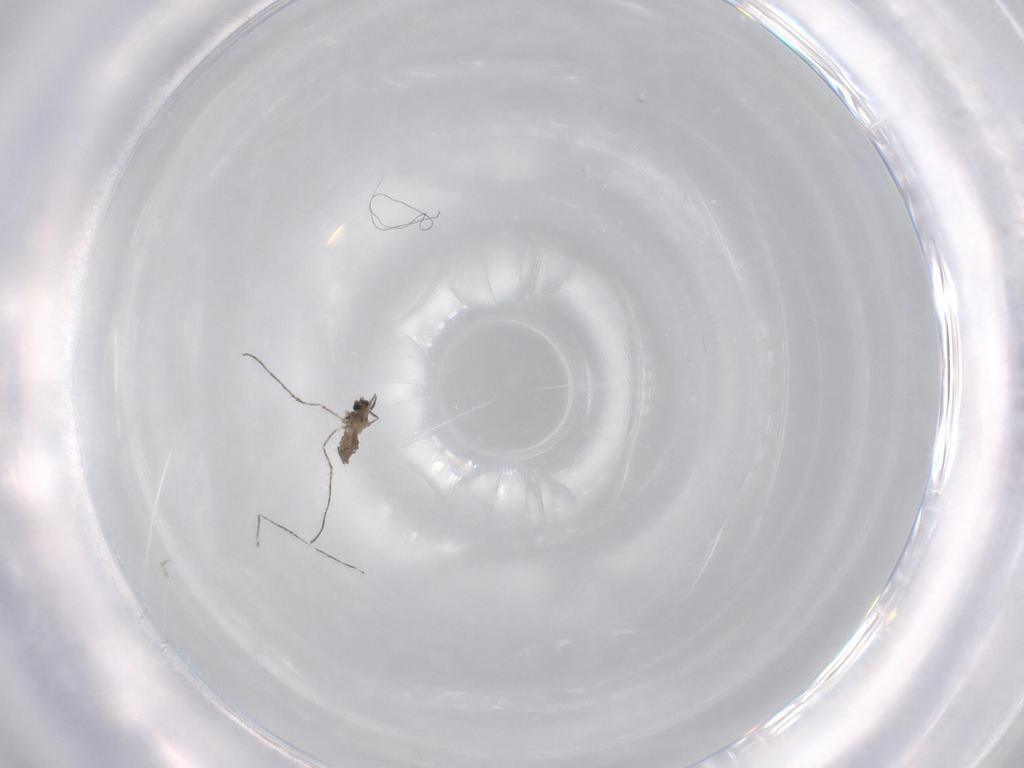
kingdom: Animalia
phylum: Arthropoda
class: Insecta
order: Diptera
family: Cecidomyiidae
